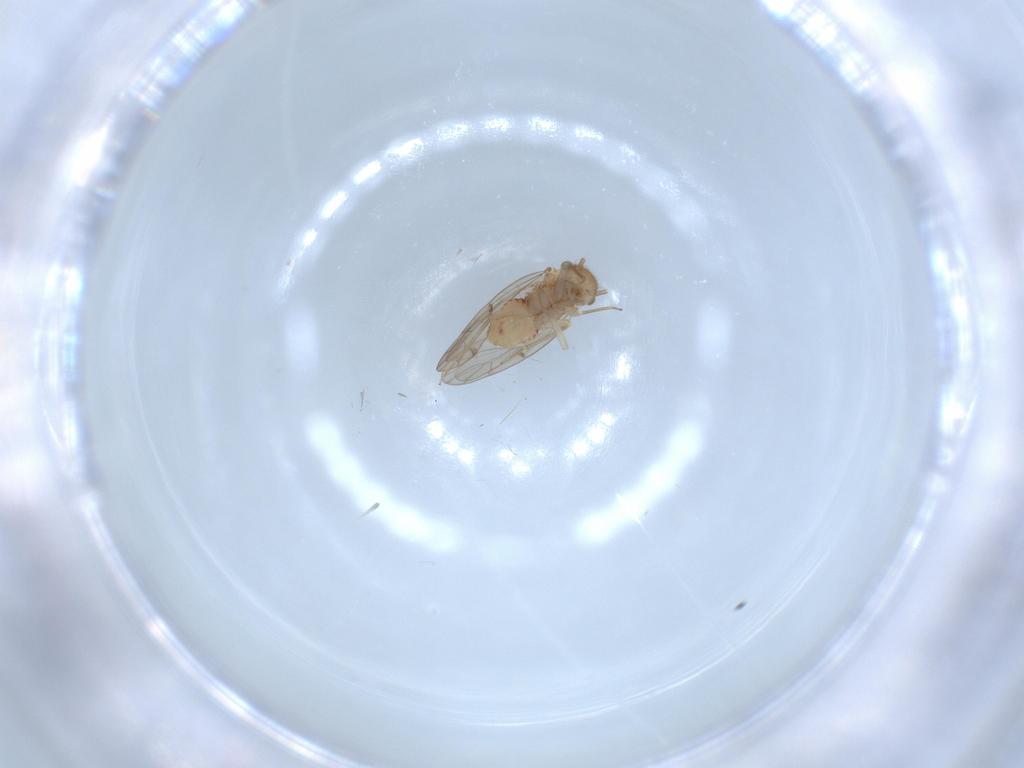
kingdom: Animalia
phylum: Arthropoda
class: Insecta
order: Psocodea
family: Ectopsocidae
